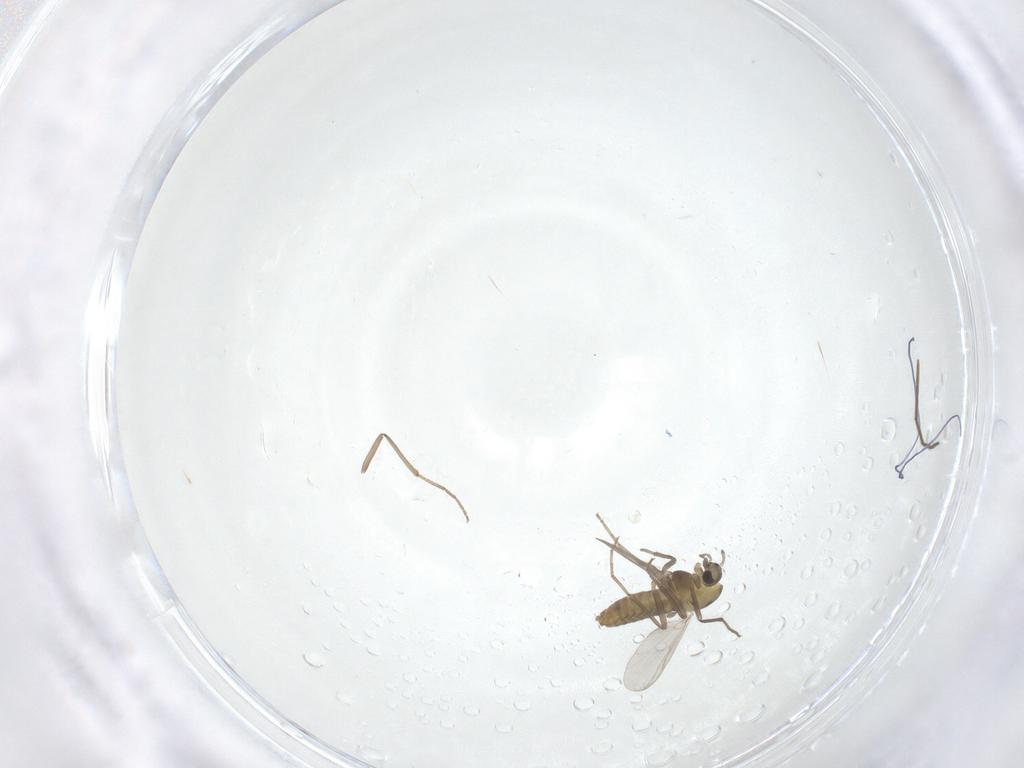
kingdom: Animalia
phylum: Arthropoda
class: Insecta
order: Diptera
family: Chironomidae
